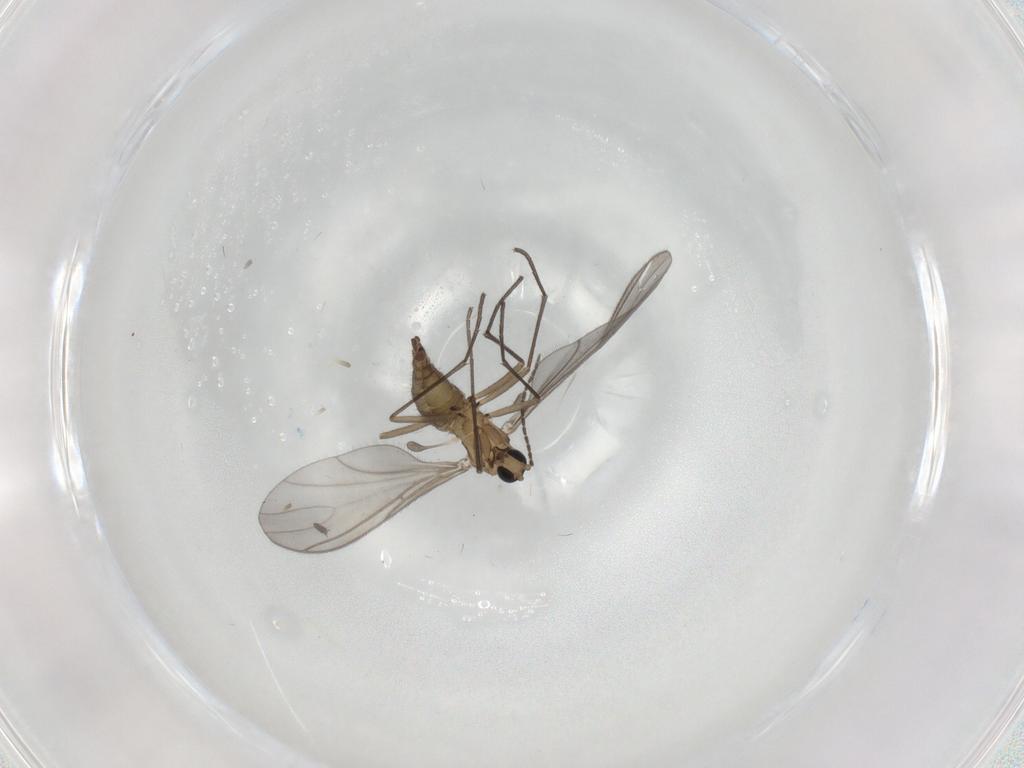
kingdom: Animalia
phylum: Arthropoda
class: Insecta
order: Diptera
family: Sciaridae
